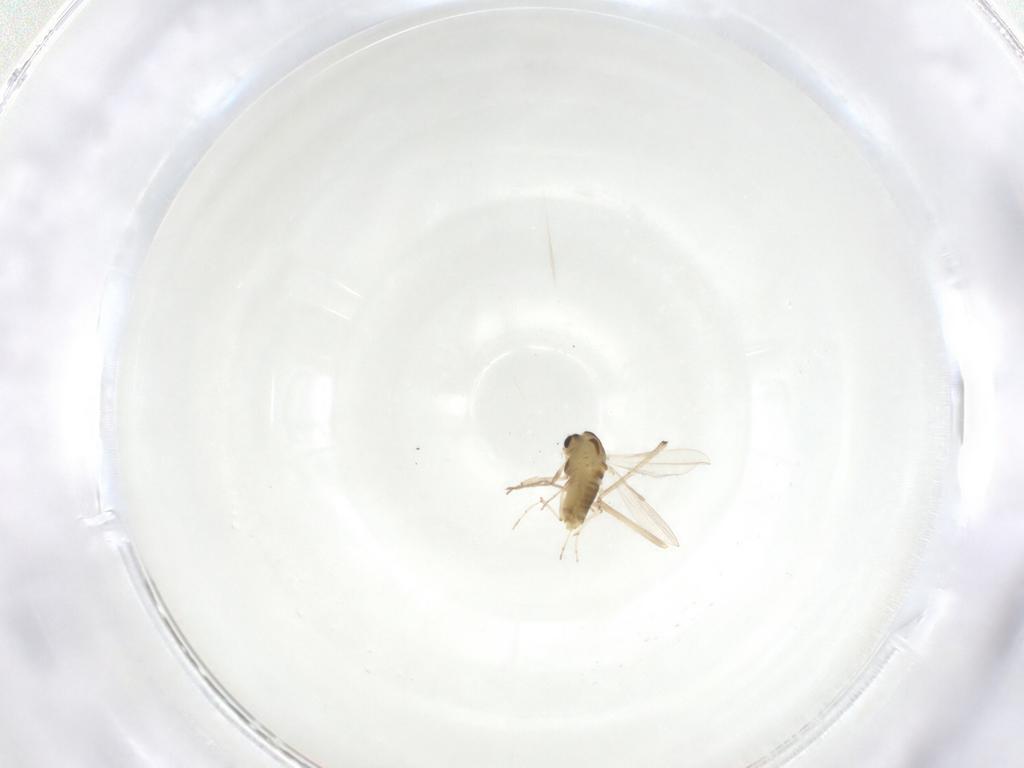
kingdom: Animalia
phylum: Arthropoda
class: Insecta
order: Diptera
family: Chironomidae
